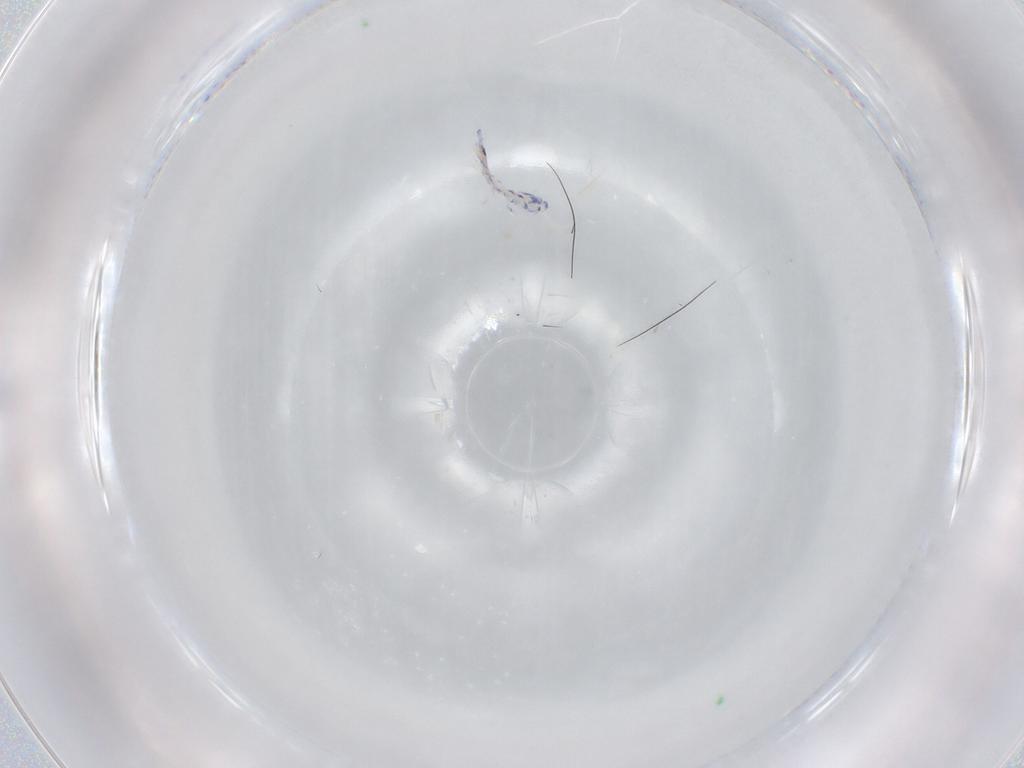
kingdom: Animalia
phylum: Arthropoda
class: Collembola
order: Entomobryomorpha
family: Entomobryidae
